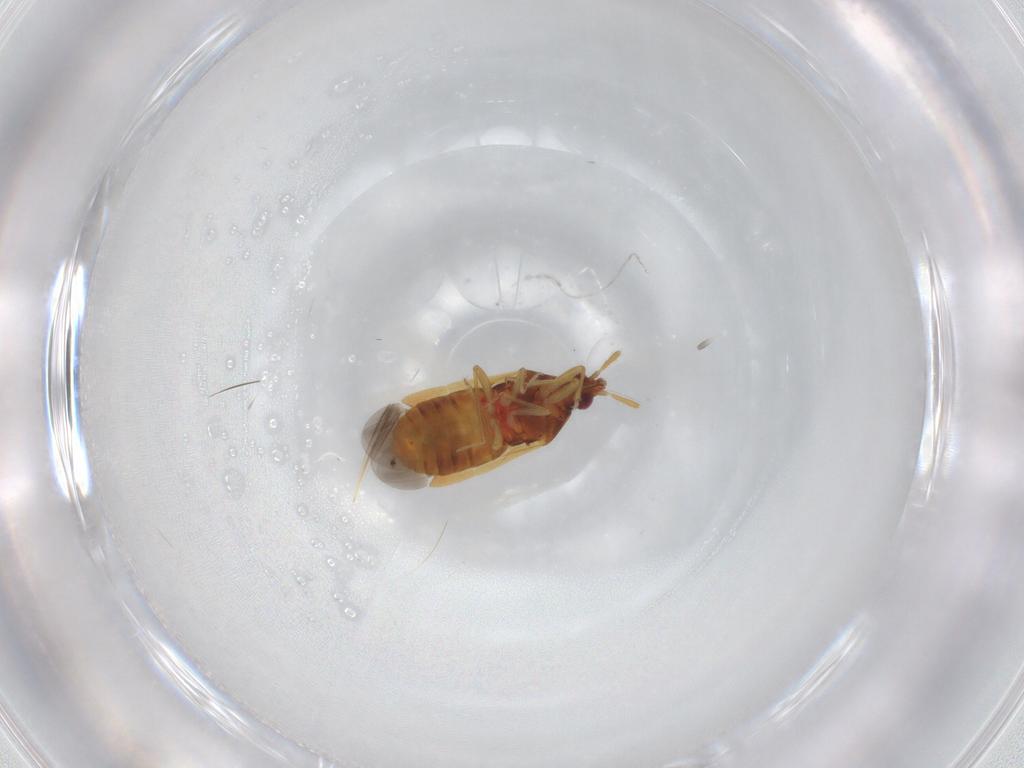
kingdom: Animalia
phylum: Arthropoda
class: Insecta
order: Hemiptera
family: Anthocoridae
